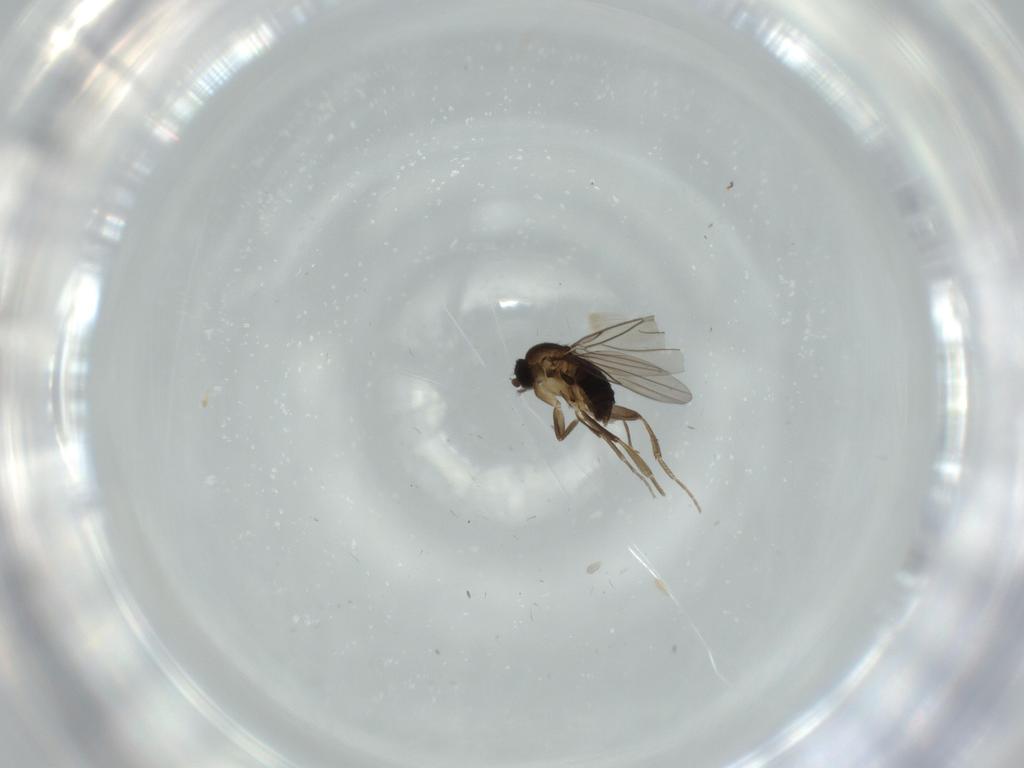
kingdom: Animalia
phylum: Arthropoda
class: Insecta
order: Diptera
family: Phoridae
